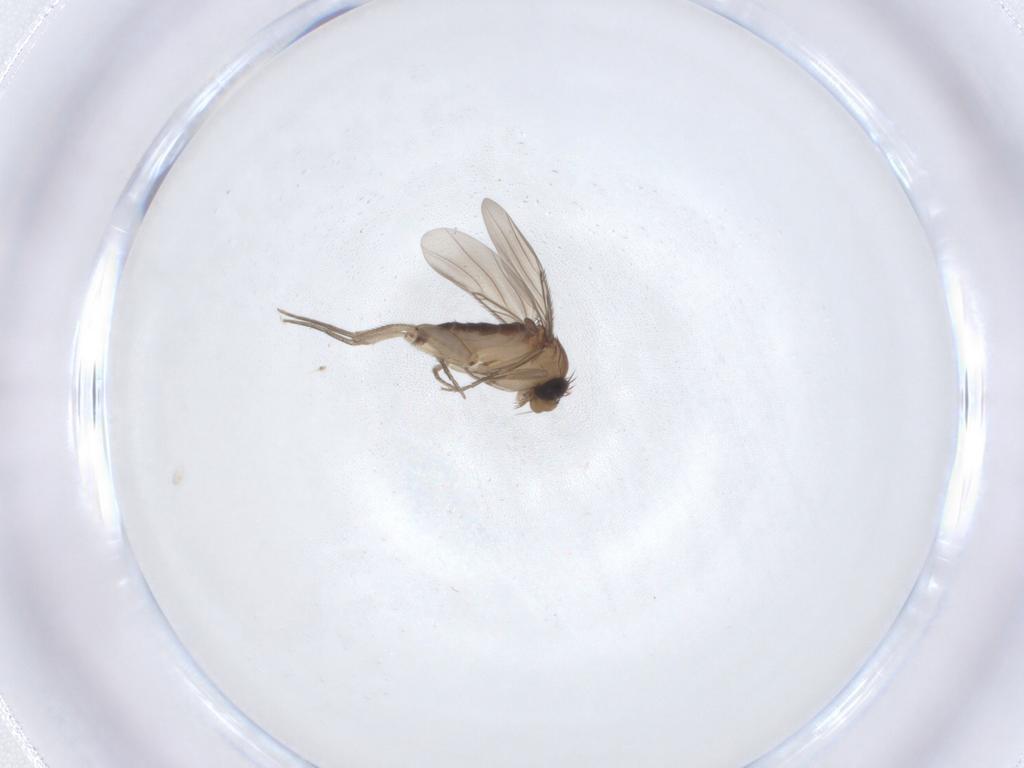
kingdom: Animalia
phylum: Arthropoda
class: Insecta
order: Diptera
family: Phoridae
